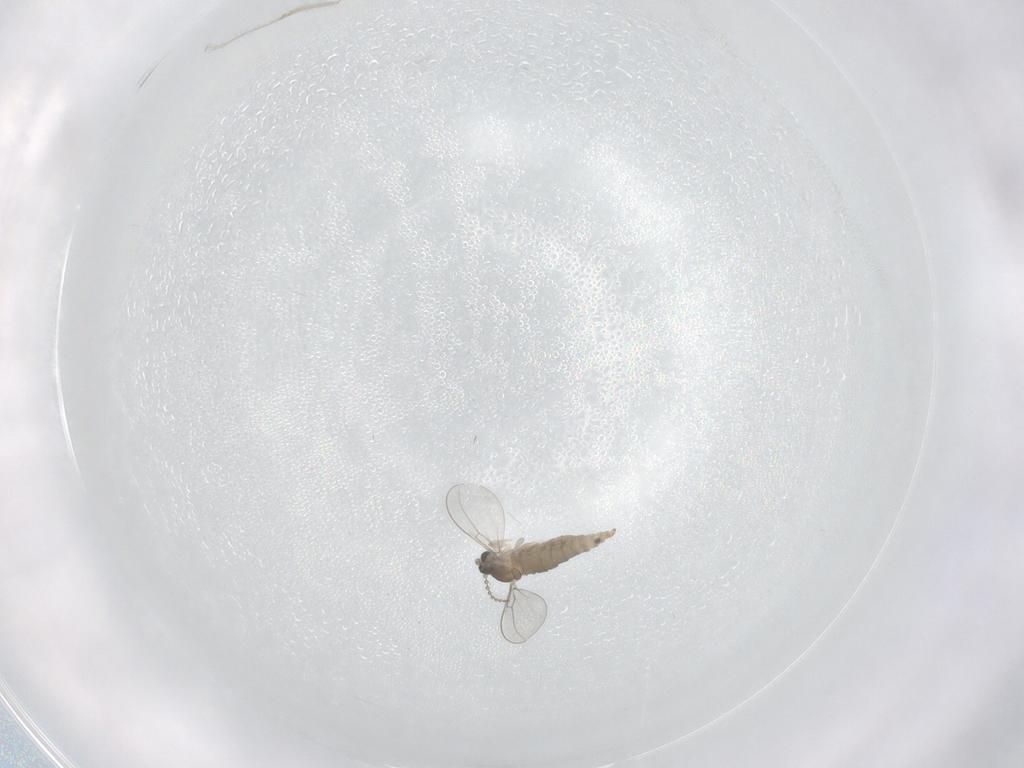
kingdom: Animalia
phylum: Arthropoda
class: Insecta
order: Diptera
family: Cecidomyiidae
